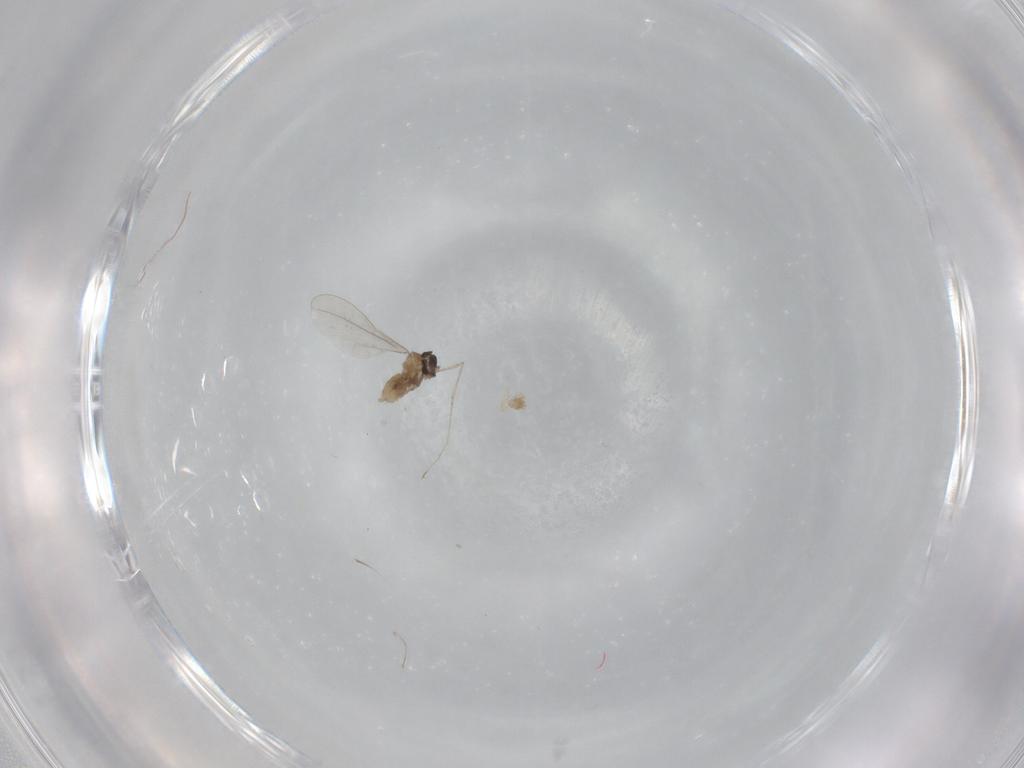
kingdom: Animalia
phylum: Arthropoda
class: Insecta
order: Diptera
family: Cecidomyiidae
